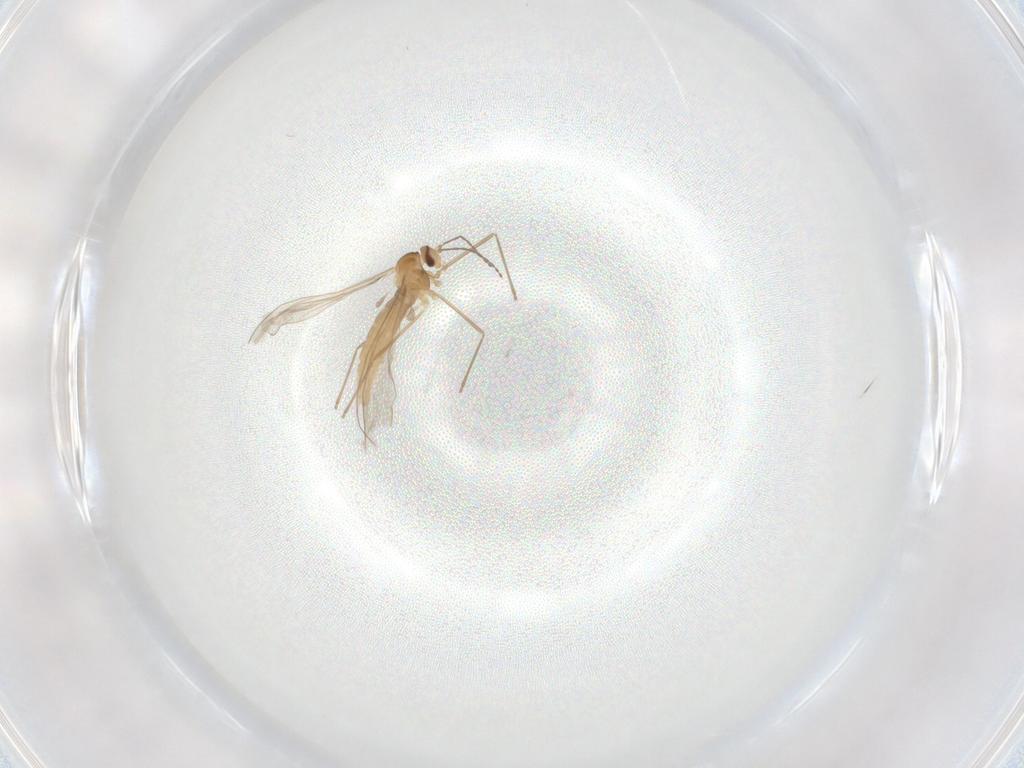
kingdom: Animalia
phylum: Arthropoda
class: Insecta
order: Diptera
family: Cecidomyiidae
